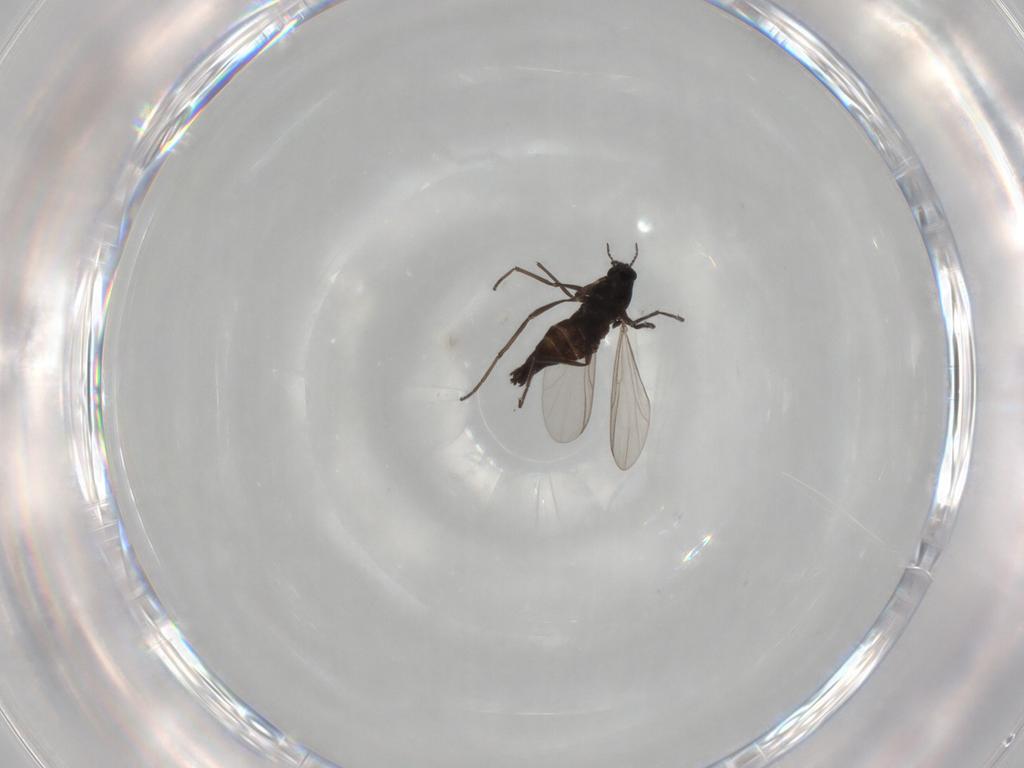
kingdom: Animalia
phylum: Arthropoda
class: Insecta
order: Diptera
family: Chironomidae
